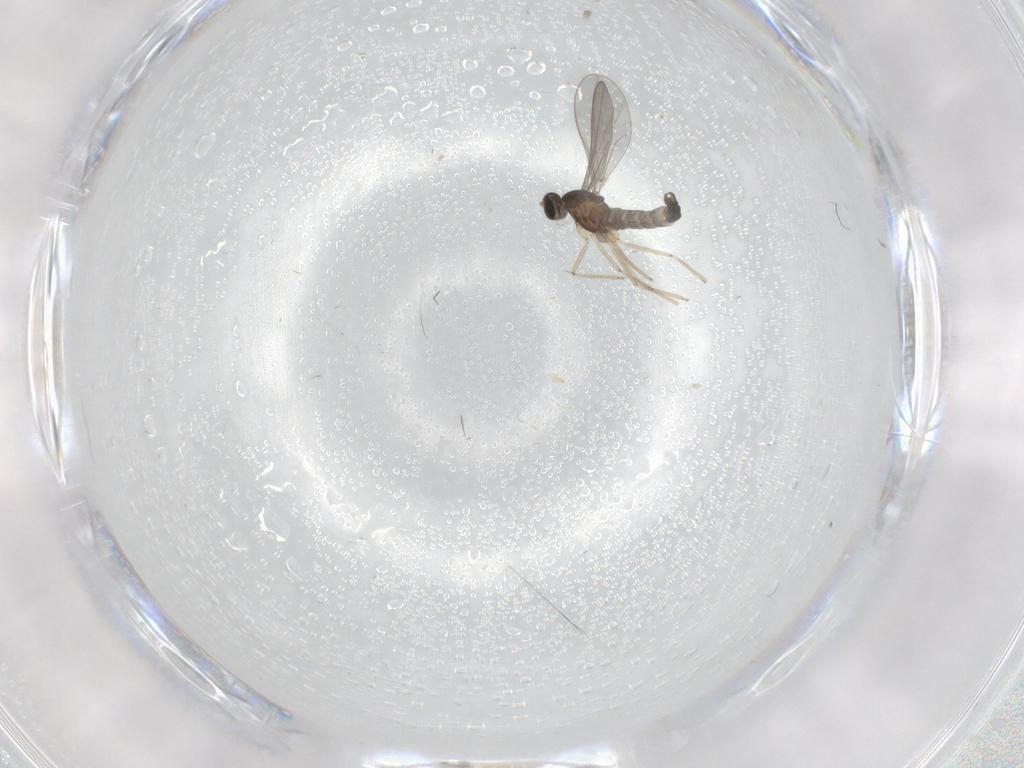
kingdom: Animalia
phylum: Arthropoda
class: Insecta
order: Diptera
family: Cecidomyiidae
